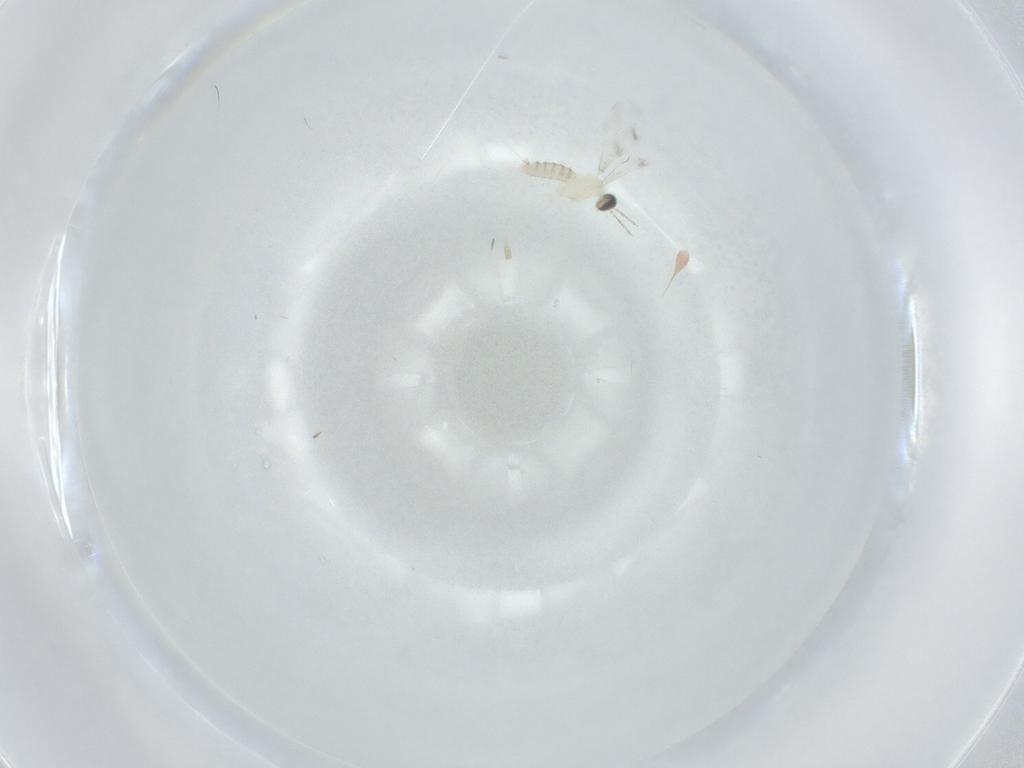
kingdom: Animalia
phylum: Arthropoda
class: Insecta
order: Diptera
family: Cecidomyiidae
